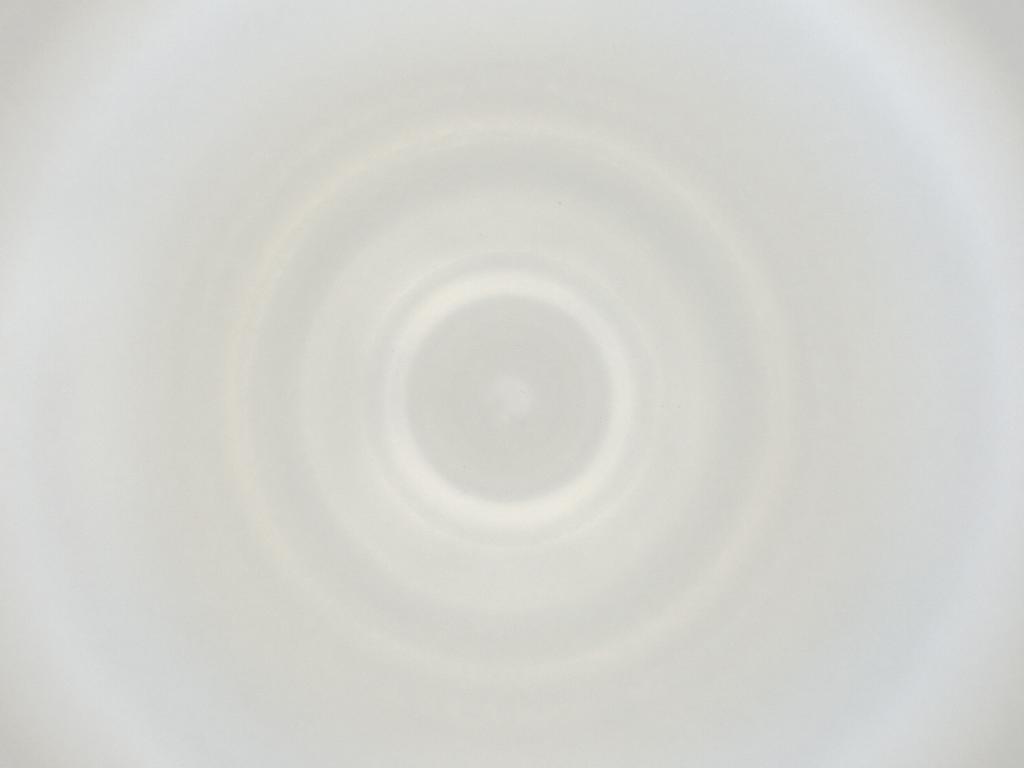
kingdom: Animalia
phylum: Arthropoda
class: Insecta
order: Diptera
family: Cecidomyiidae
